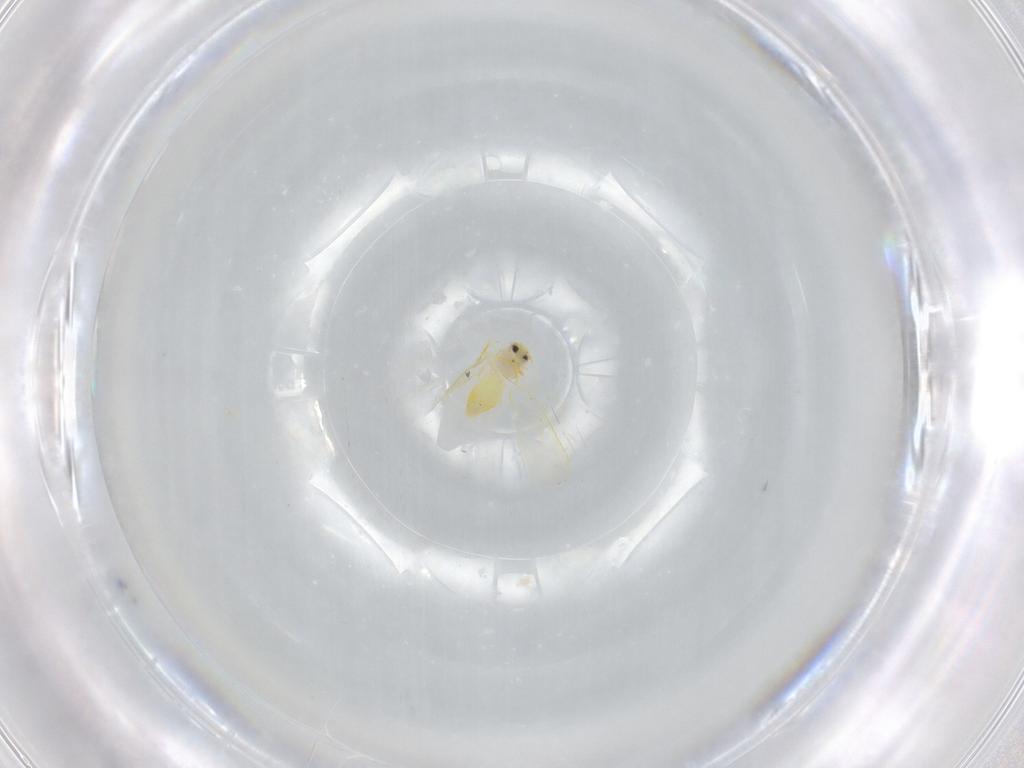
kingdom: Animalia
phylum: Arthropoda
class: Insecta
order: Hemiptera
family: Aleyrodidae
